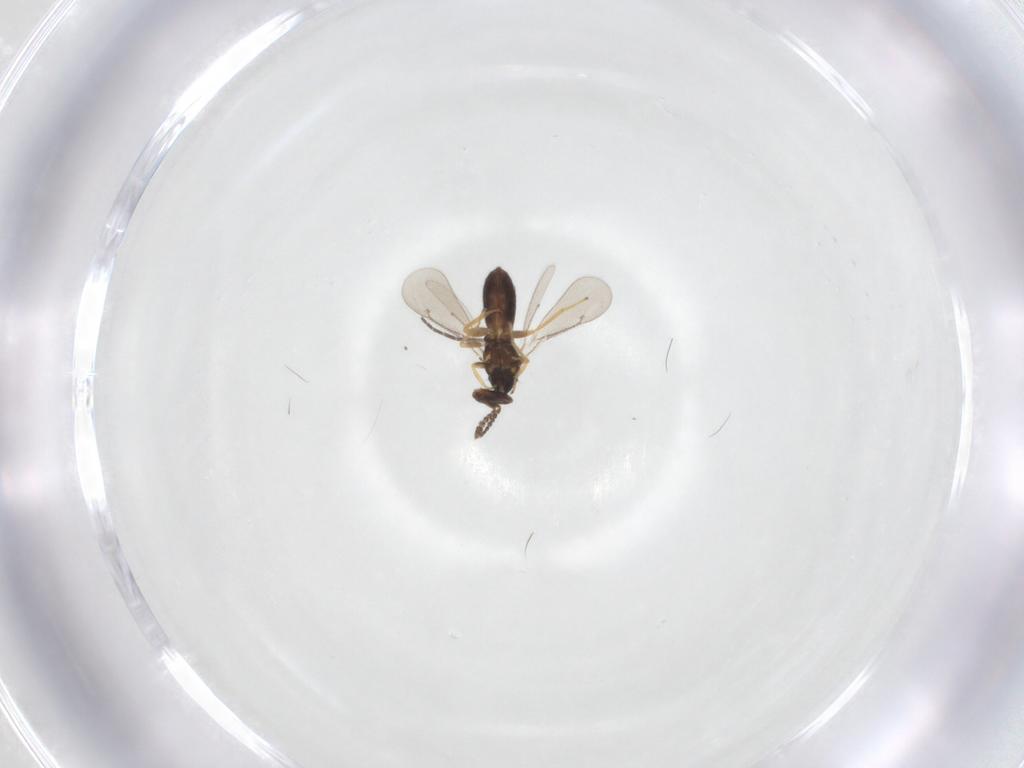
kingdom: Animalia
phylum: Arthropoda
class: Insecta
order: Hymenoptera
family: Eulophidae
